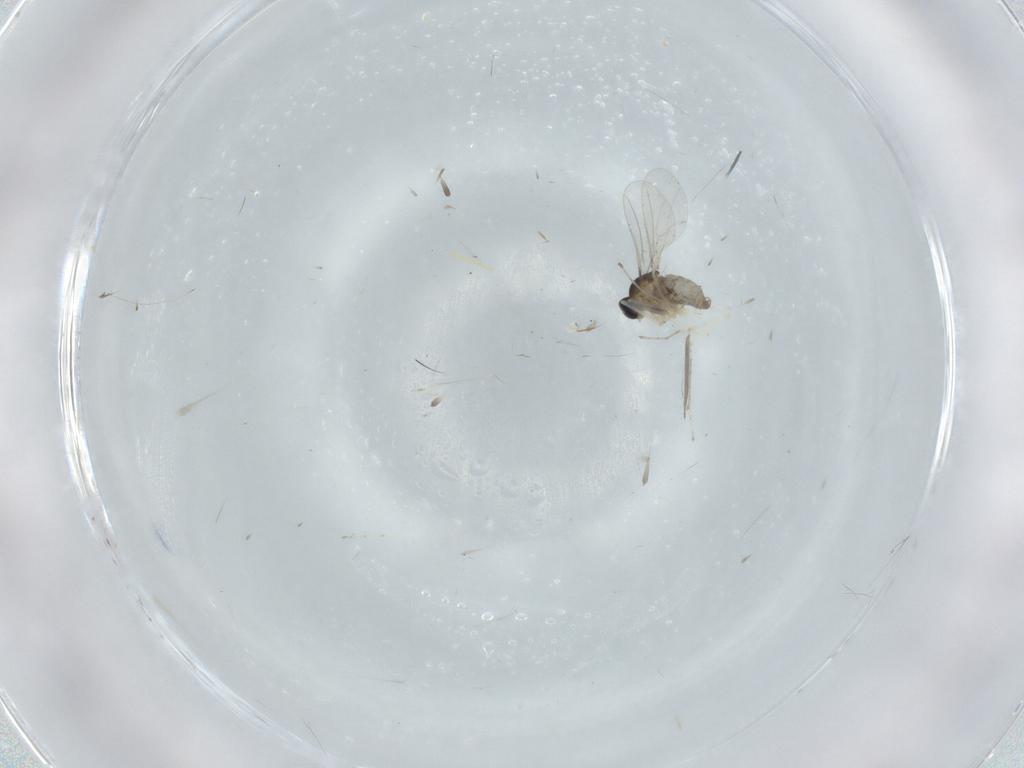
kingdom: Animalia
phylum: Arthropoda
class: Insecta
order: Diptera
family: Cecidomyiidae
